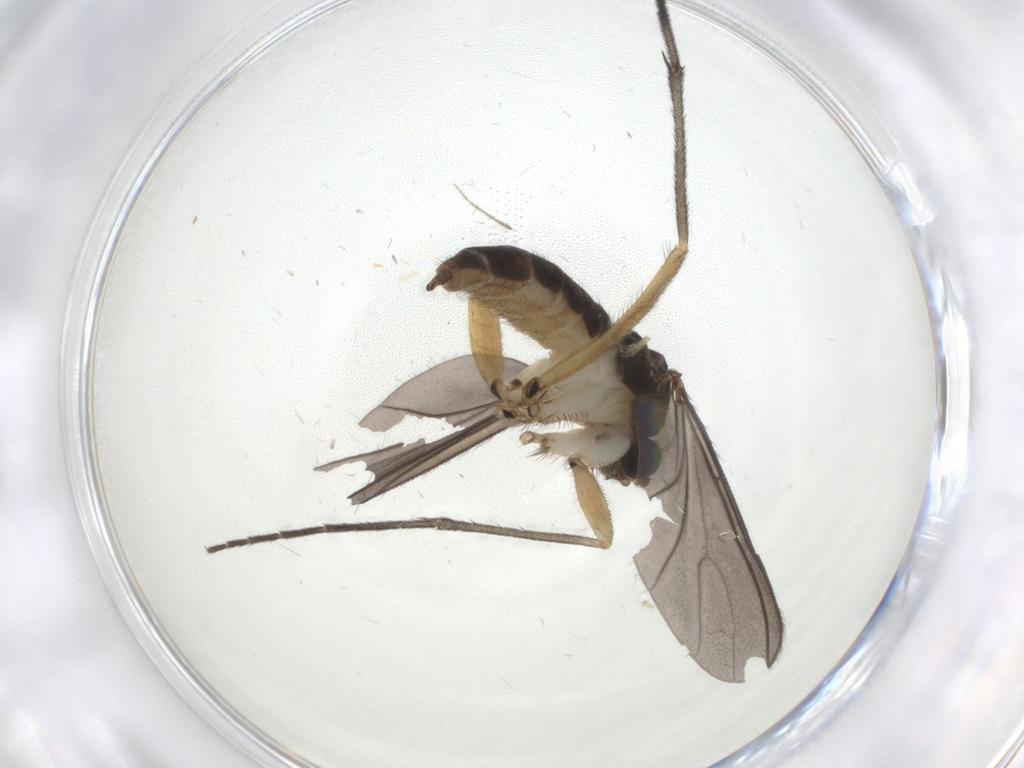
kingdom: Animalia
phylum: Arthropoda
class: Insecta
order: Diptera
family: Sciaridae
